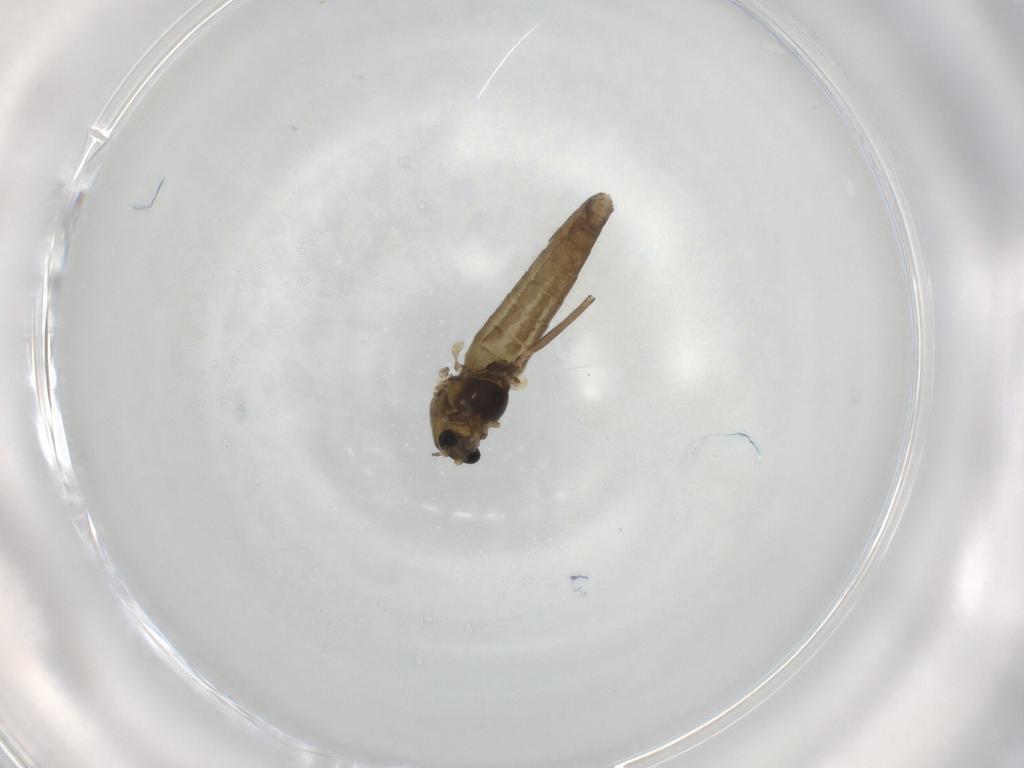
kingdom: Animalia
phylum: Arthropoda
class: Insecta
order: Diptera
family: Chironomidae
